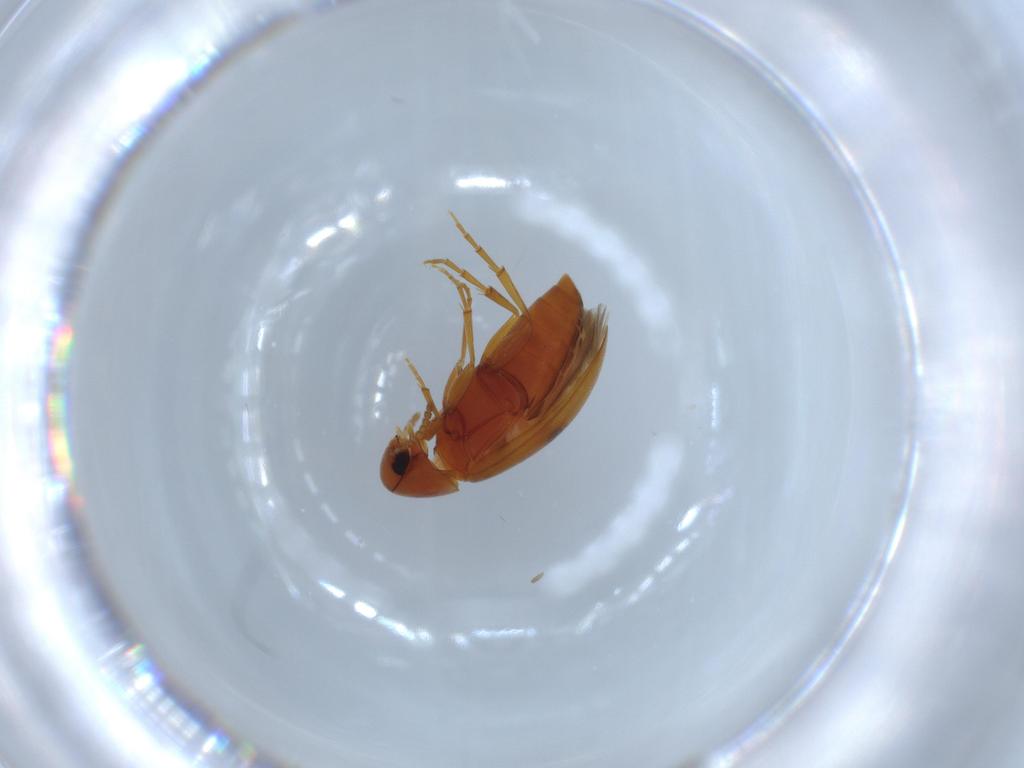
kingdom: Animalia
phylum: Arthropoda
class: Insecta
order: Coleoptera
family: Scraptiidae
